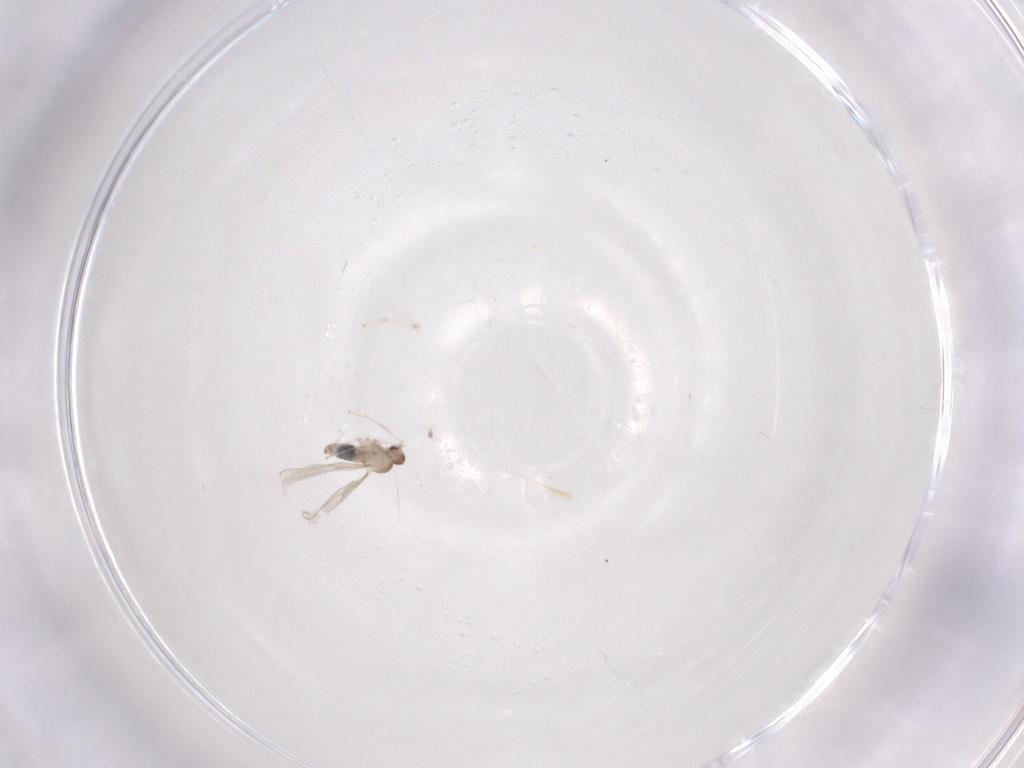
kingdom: Animalia
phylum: Arthropoda
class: Insecta
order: Diptera
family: Cecidomyiidae
